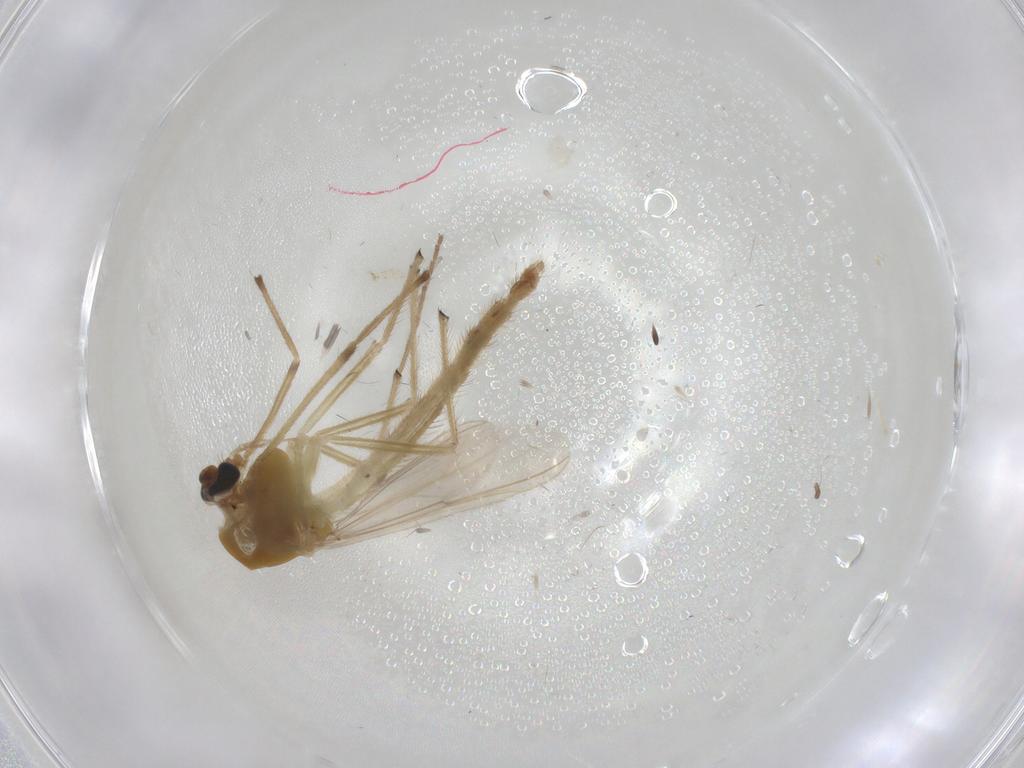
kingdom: Animalia
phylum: Arthropoda
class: Insecta
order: Diptera
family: Chironomidae
